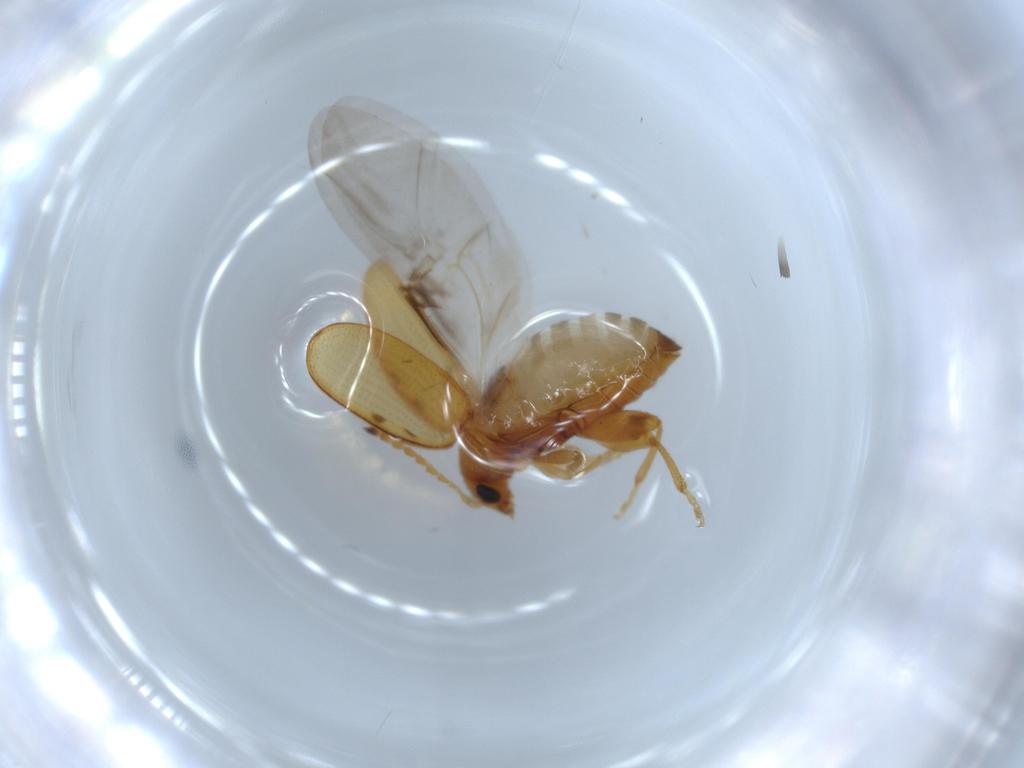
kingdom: Animalia
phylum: Arthropoda
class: Insecta
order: Coleoptera
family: Chrysomelidae
